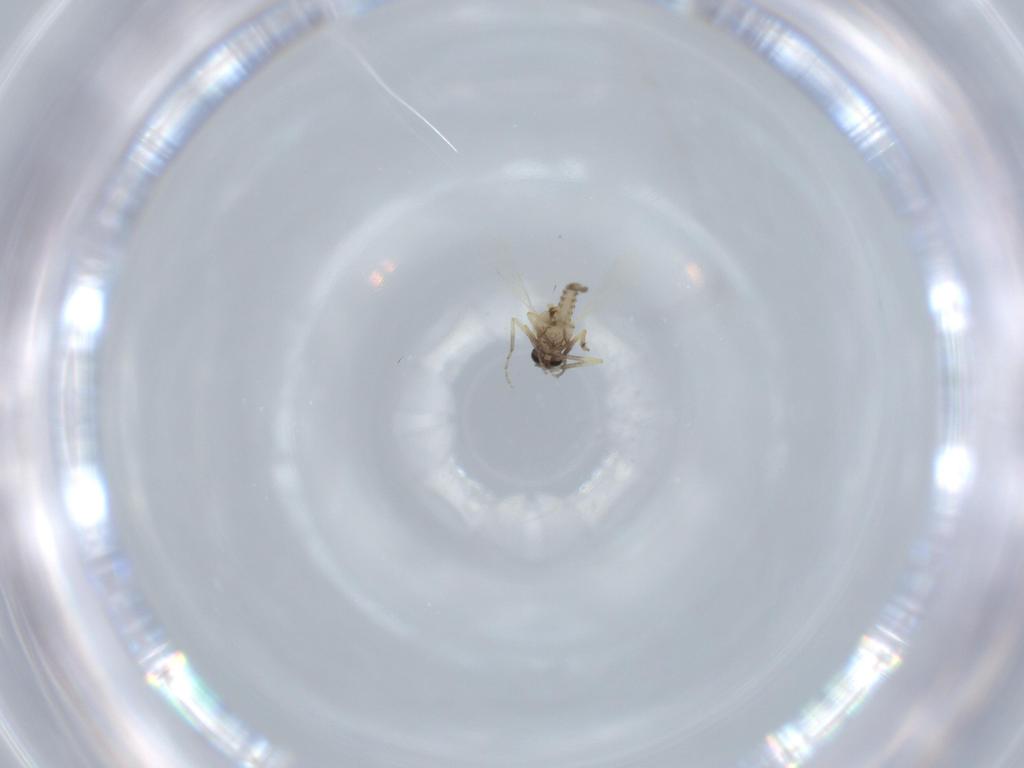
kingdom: Animalia
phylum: Arthropoda
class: Insecta
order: Diptera
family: Ceratopogonidae
